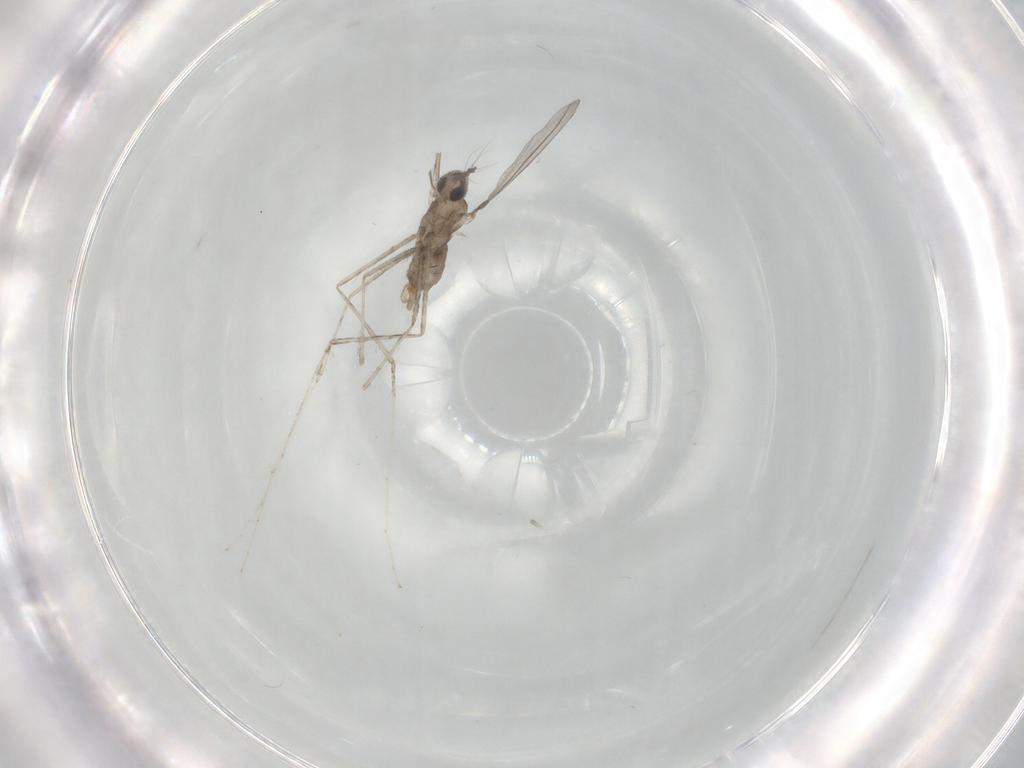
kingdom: Animalia
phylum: Arthropoda
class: Insecta
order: Diptera
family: Cecidomyiidae
